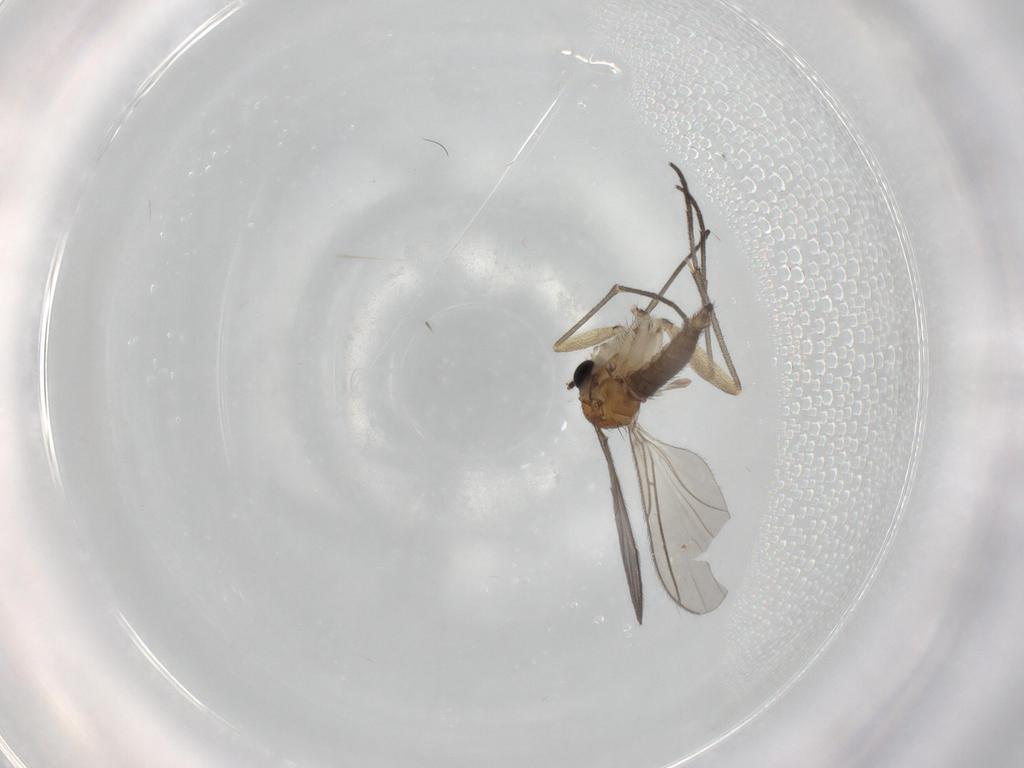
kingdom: Animalia
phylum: Arthropoda
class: Insecta
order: Diptera
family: Sciaridae
